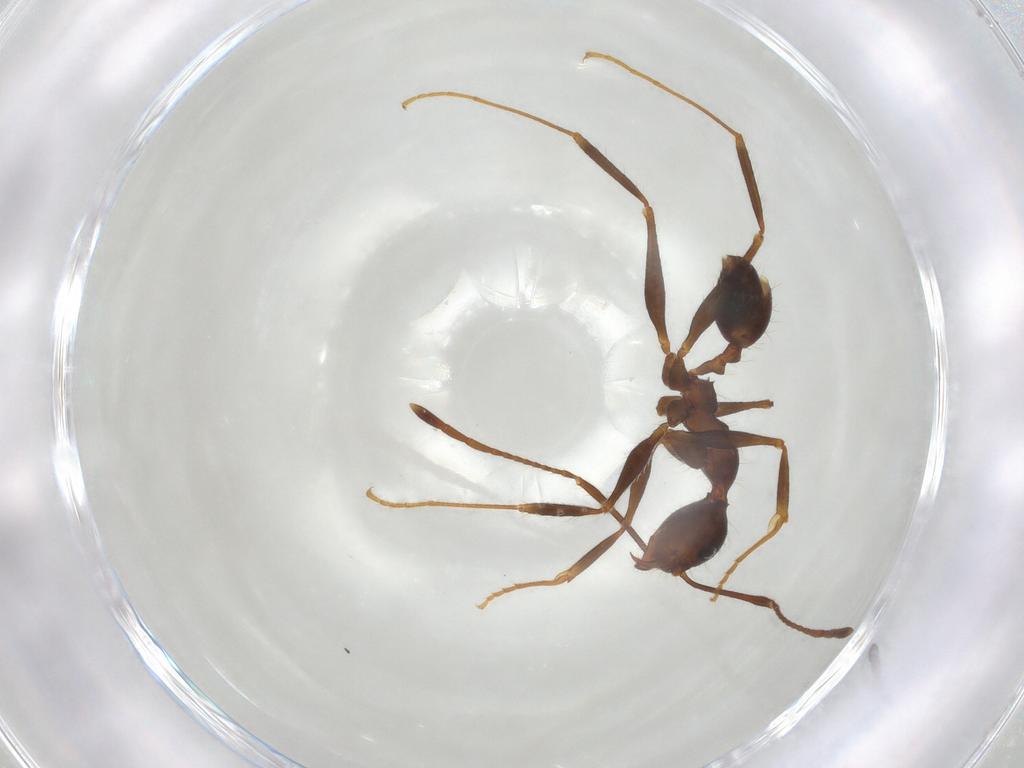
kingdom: Animalia
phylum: Arthropoda
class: Insecta
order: Hymenoptera
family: Formicidae
